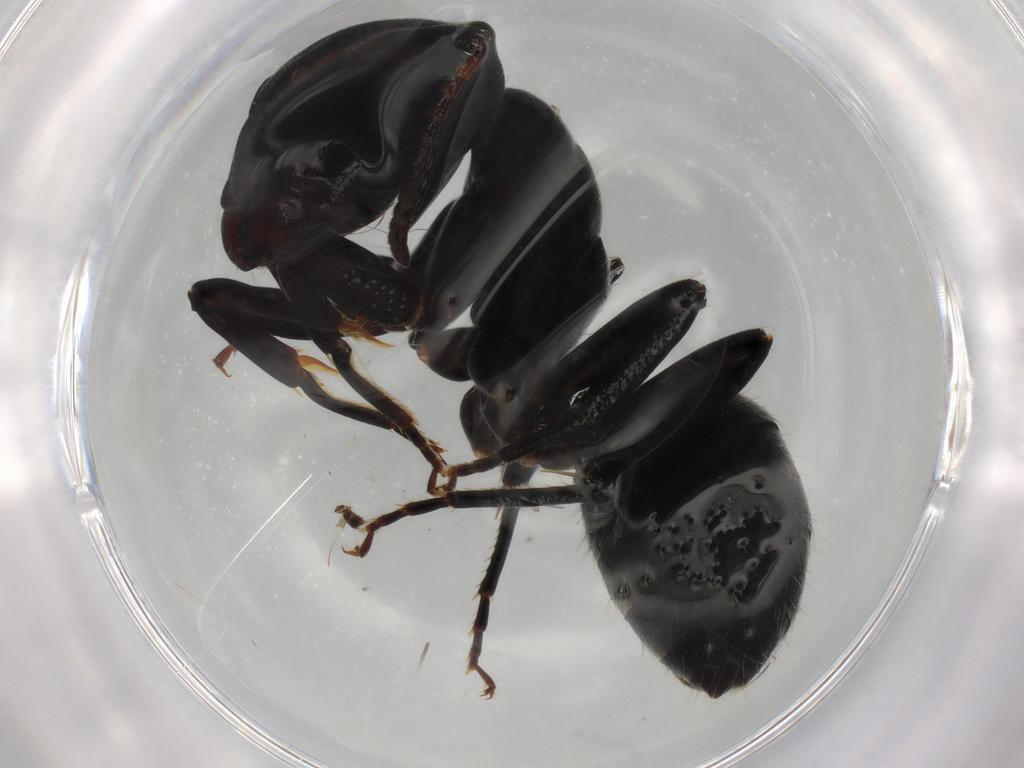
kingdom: Animalia
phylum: Arthropoda
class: Insecta
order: Hymenoptera
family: Formicidae
